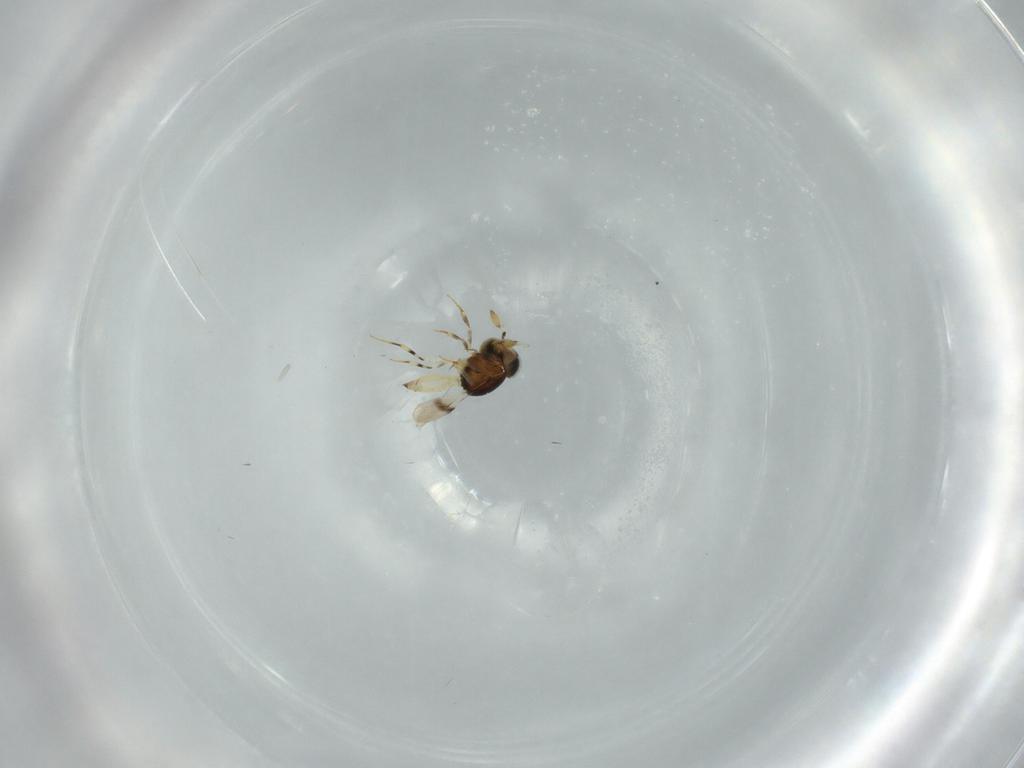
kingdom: Animalia
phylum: Arthropoda
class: Insecta
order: Hymenoptera
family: Scelionidae
